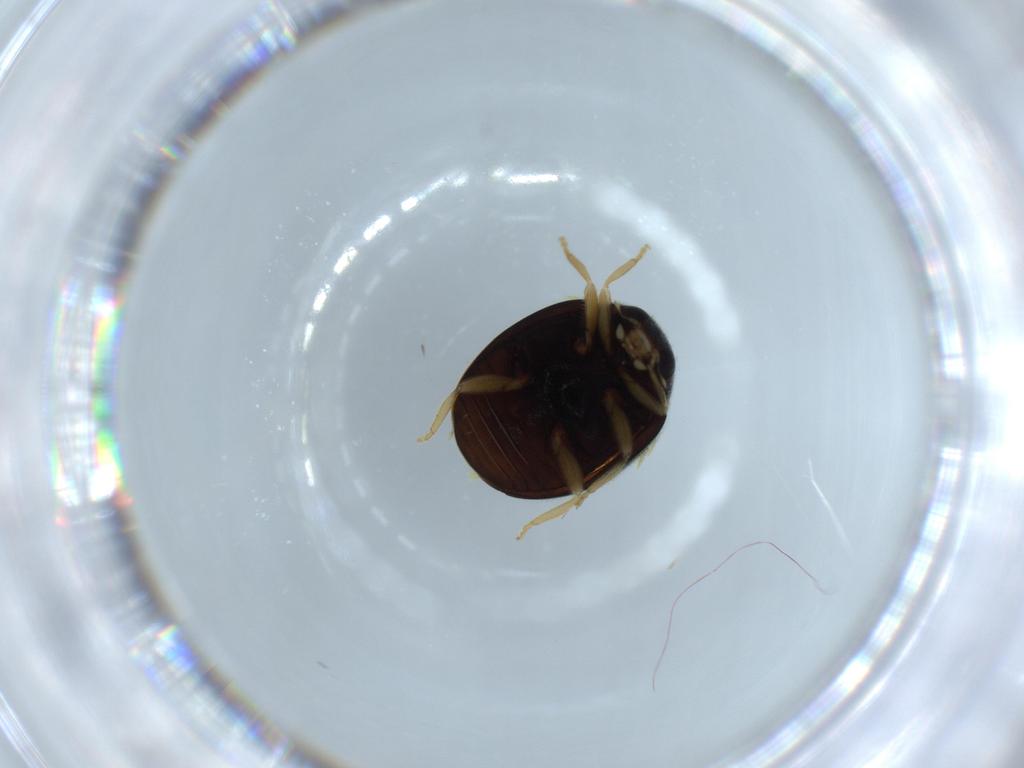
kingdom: Animalia
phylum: Arthropoda
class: Insecta
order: Coleoptera
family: Coccinellidae
